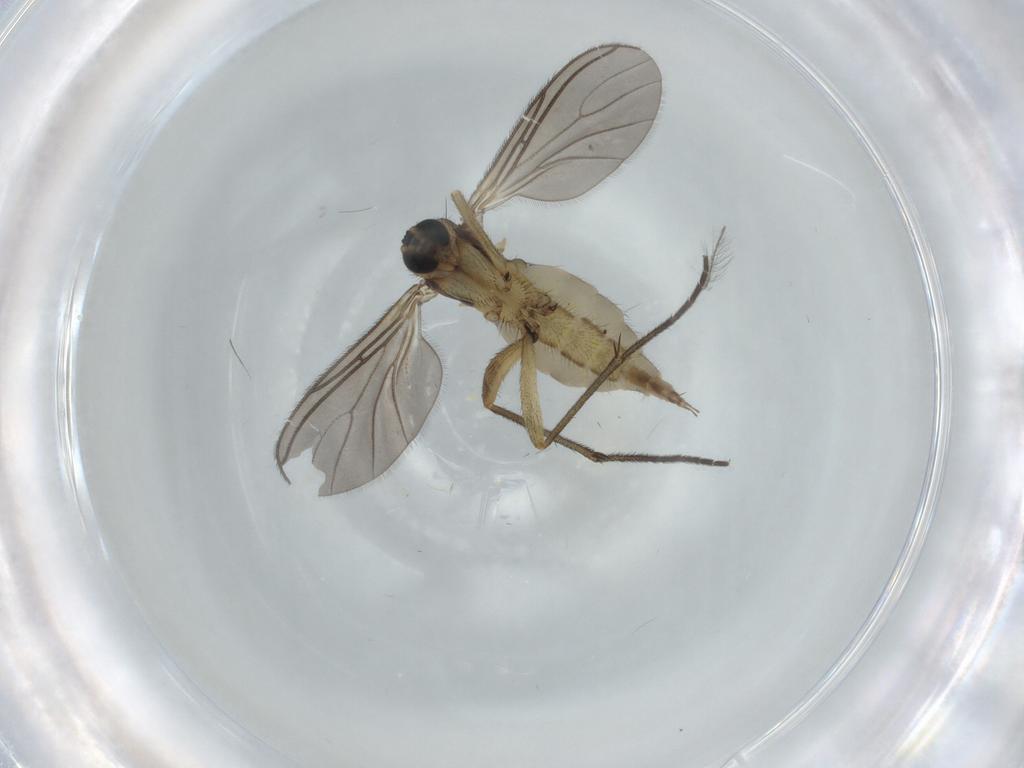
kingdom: Animalia
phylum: Arthropoda
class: Insecta
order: Diptera
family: Sciaridae
